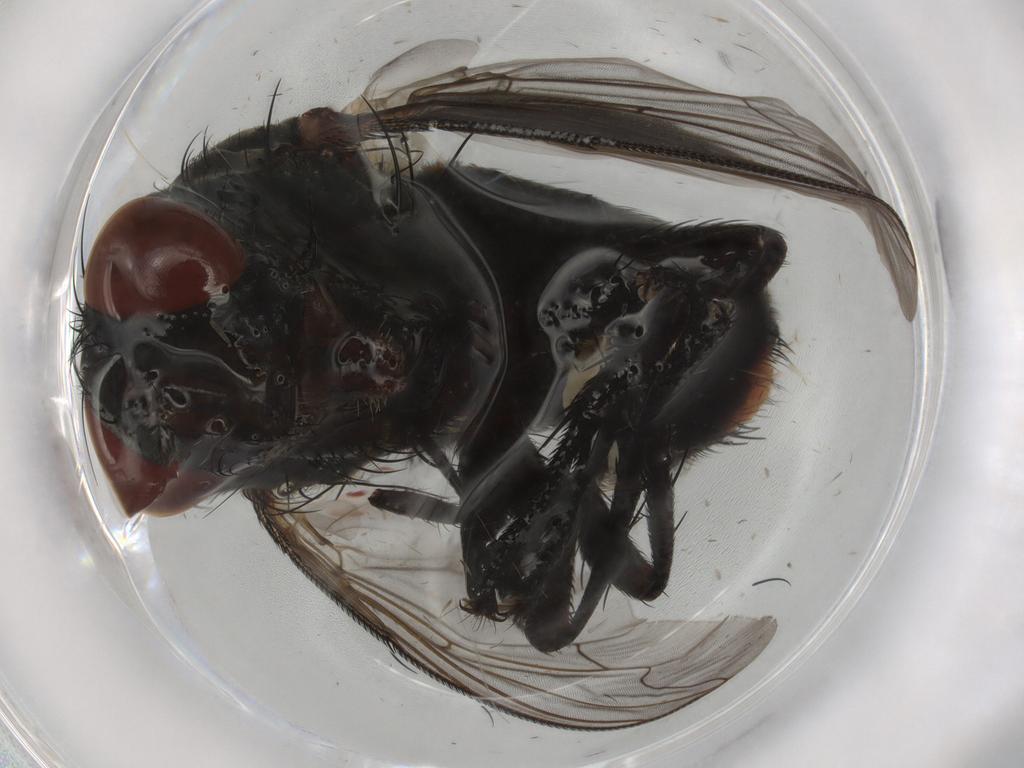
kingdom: Animalia
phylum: Arthropoda
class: Insecta
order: Diptera
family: Sarcophagidae
